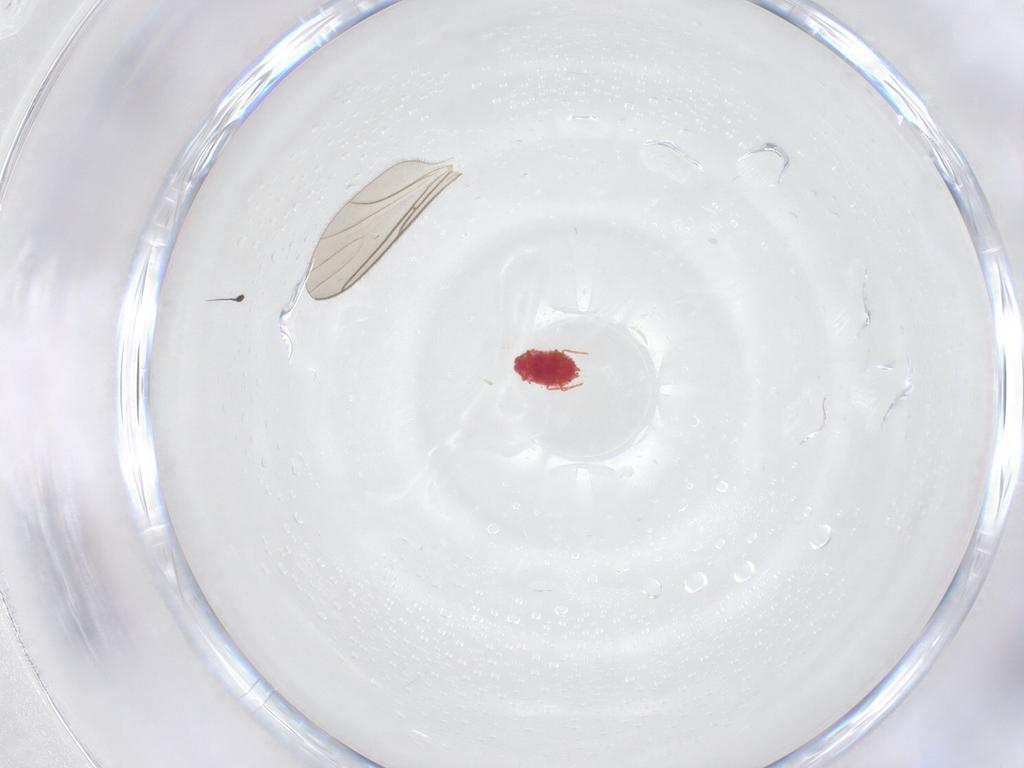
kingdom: Animalia
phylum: Arthropoda
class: Insecta
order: Diptera
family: Sciaridae
